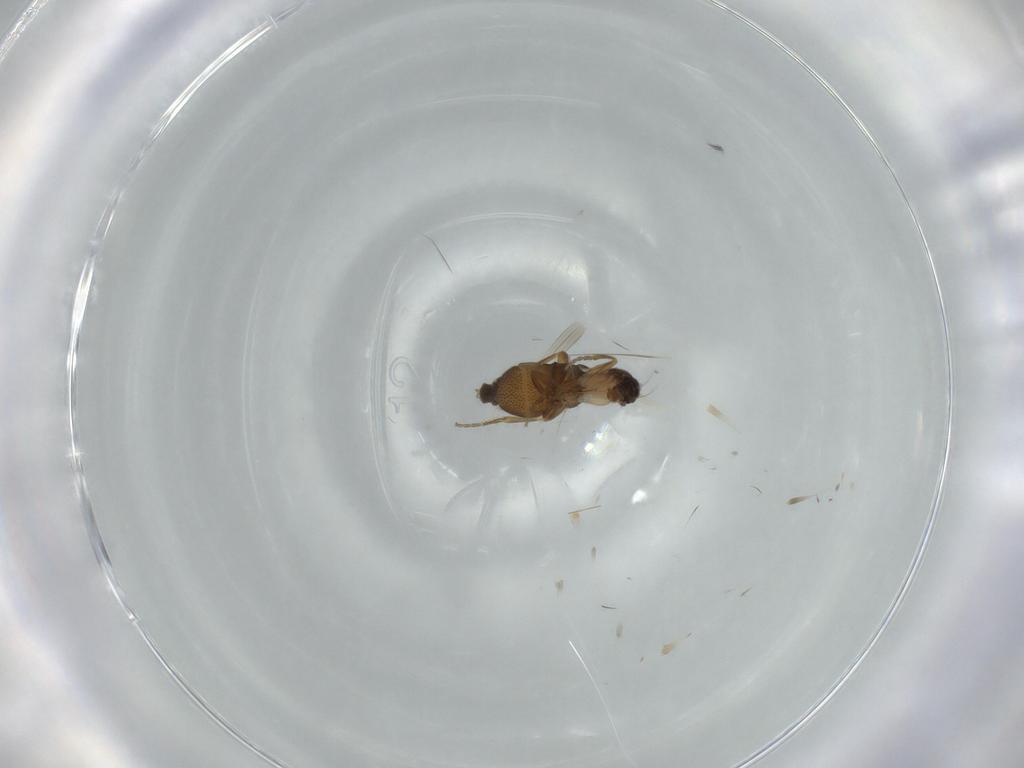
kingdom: Animalia
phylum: Arthropoda
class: Insecta
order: Diptera
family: Phoridae
